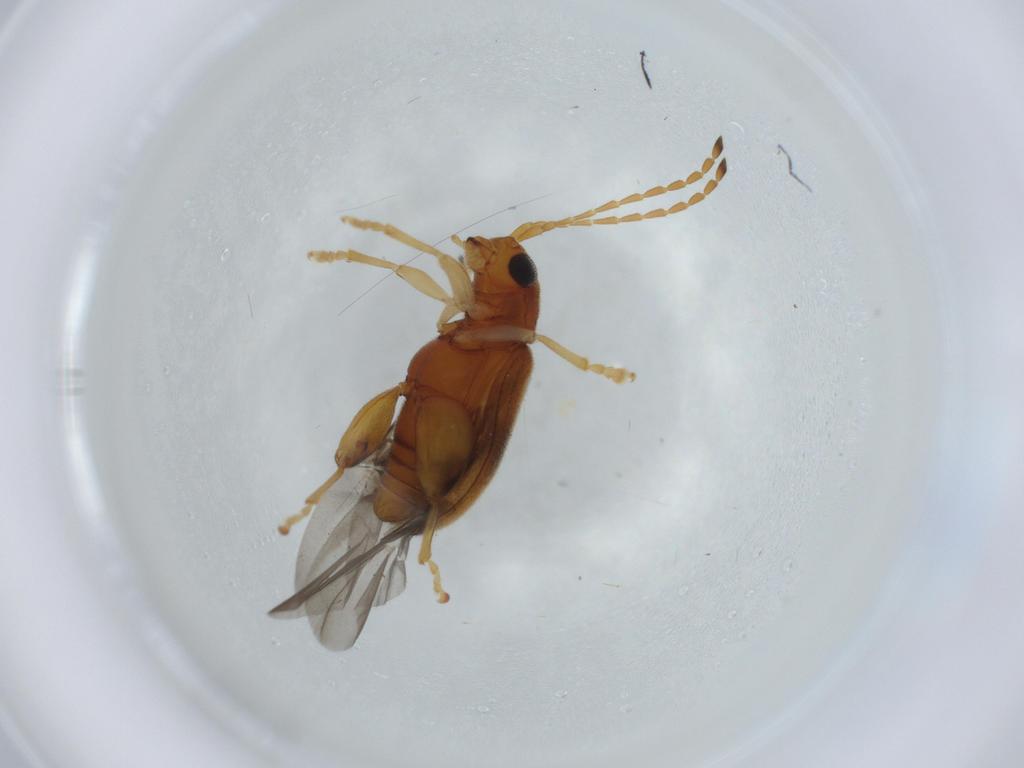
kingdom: Animalia
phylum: Arthropoda
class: Insecta
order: Coleoptera
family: Chrysomelidae
